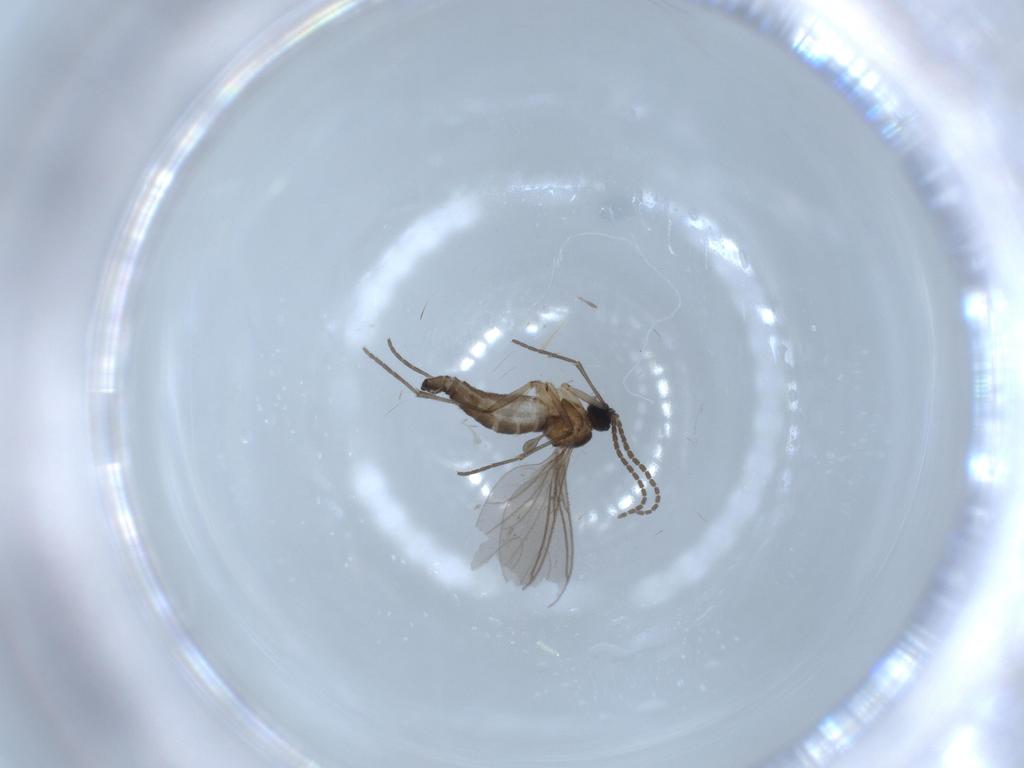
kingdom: Animalia
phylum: Arthropoda
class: Insecta
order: Diptera
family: Sciaridae
